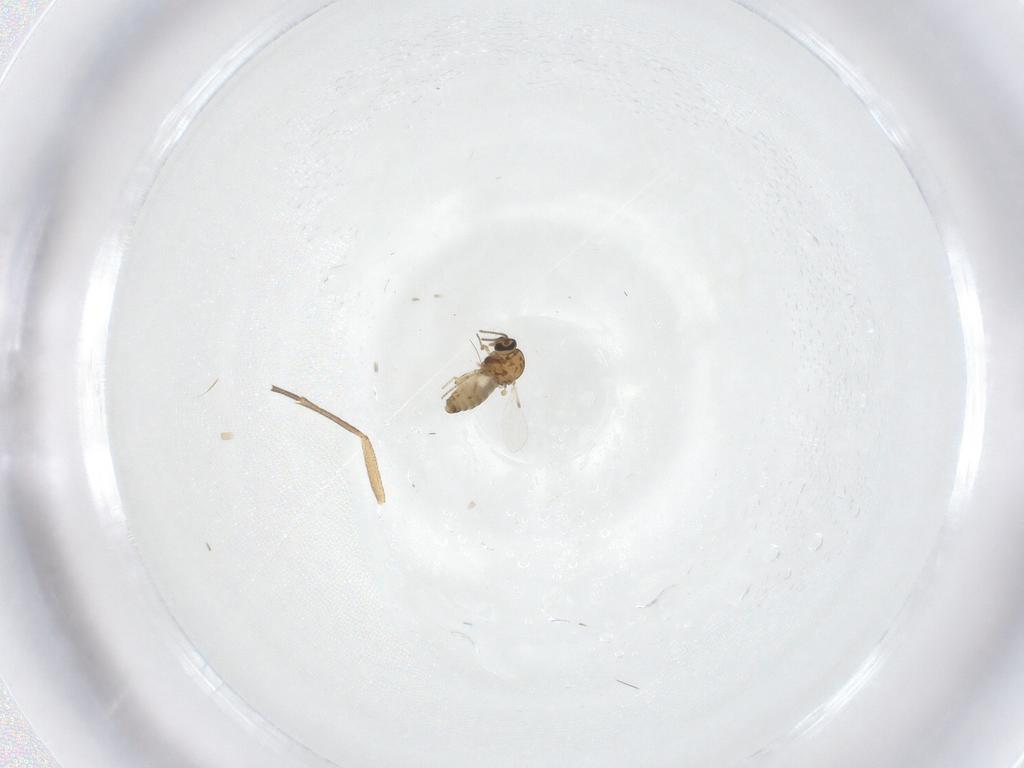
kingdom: Animalia
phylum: Arthropoda
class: Insecta
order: Diptera
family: Ceratopogonidae
